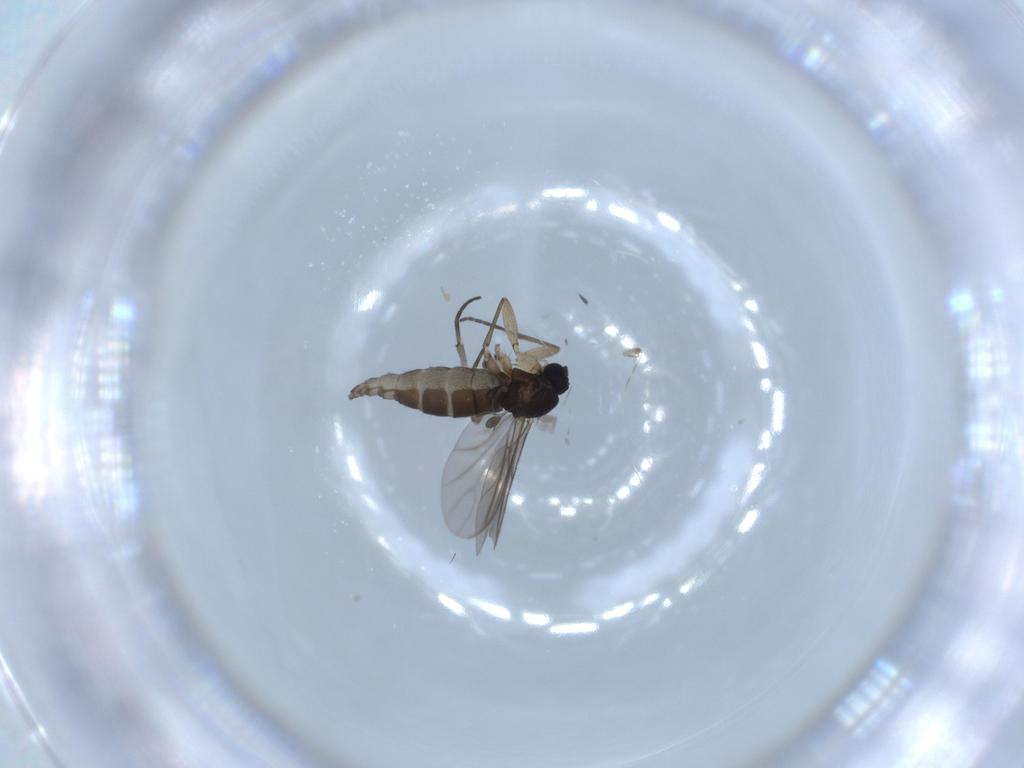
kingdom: Animalia
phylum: Arthropoda
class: Insecta
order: Diptera
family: Sciaridae
